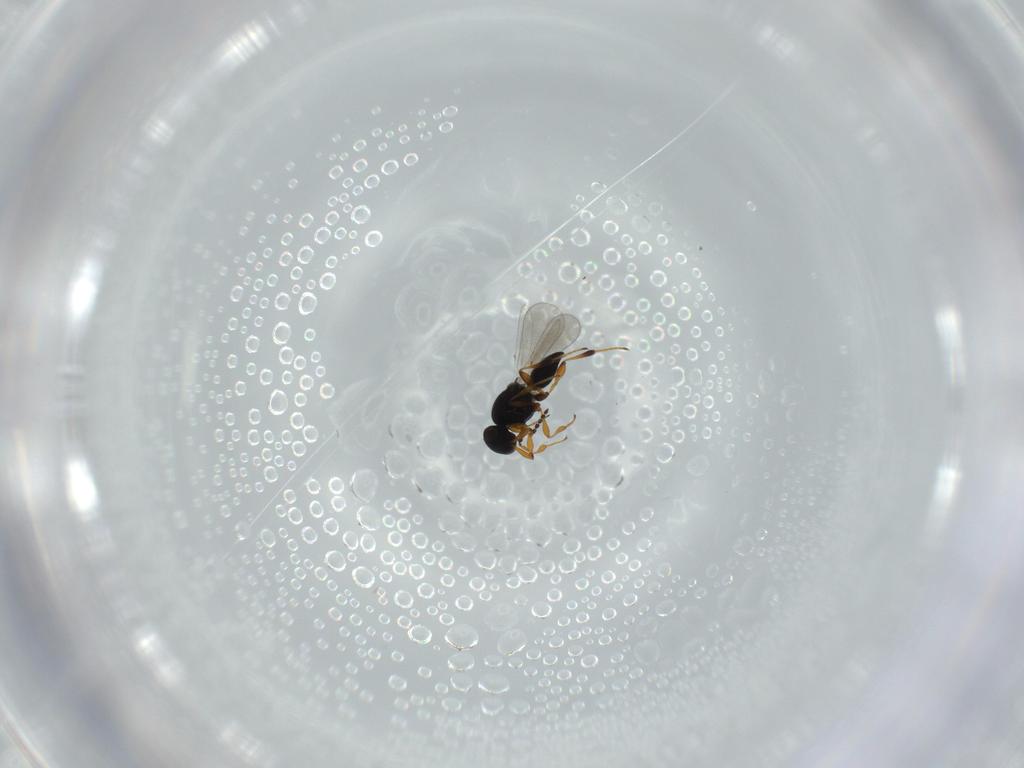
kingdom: Animalia
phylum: Arthropoda
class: Insecta
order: Hymenoptera
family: Platygastridae
